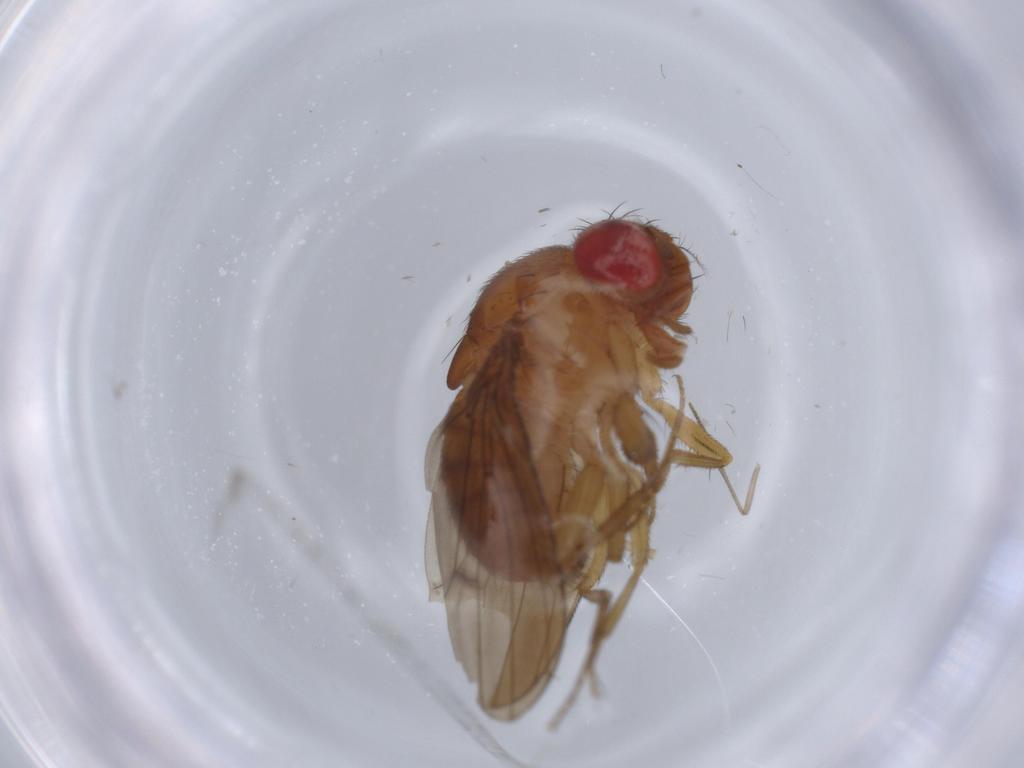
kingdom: Animalia
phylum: Arthropoda
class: Insecta
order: Diptera
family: Drosophilidae
